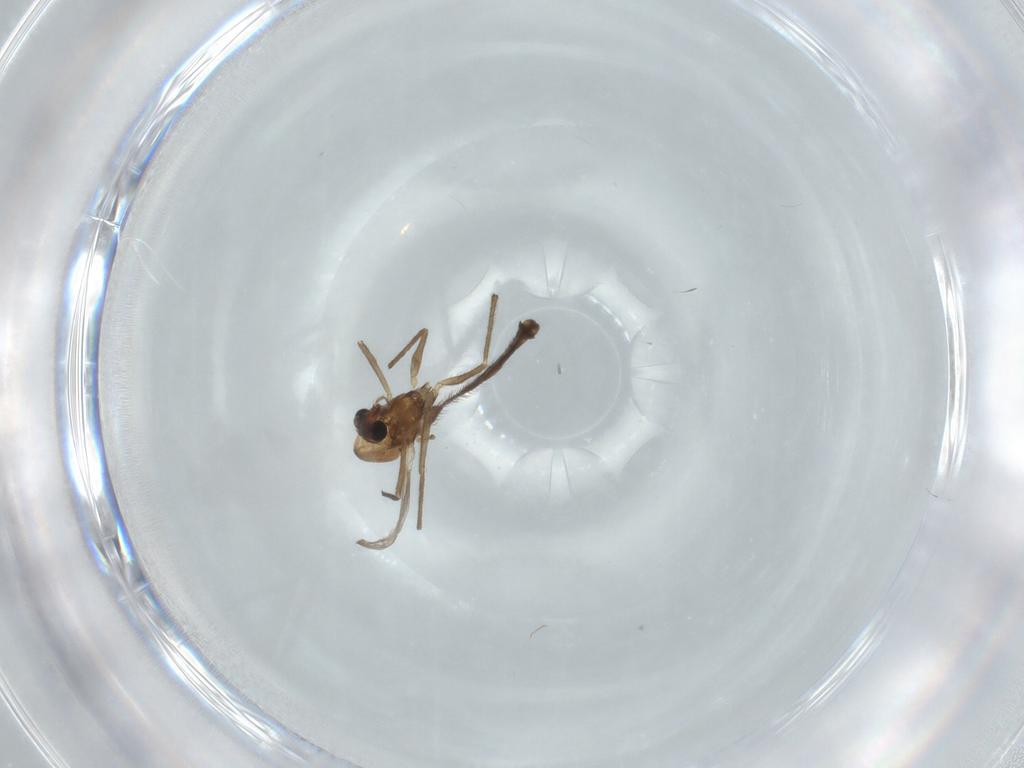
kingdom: Animalia
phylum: Arthropoda
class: Insecta
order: Diptera
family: Chironomidae
